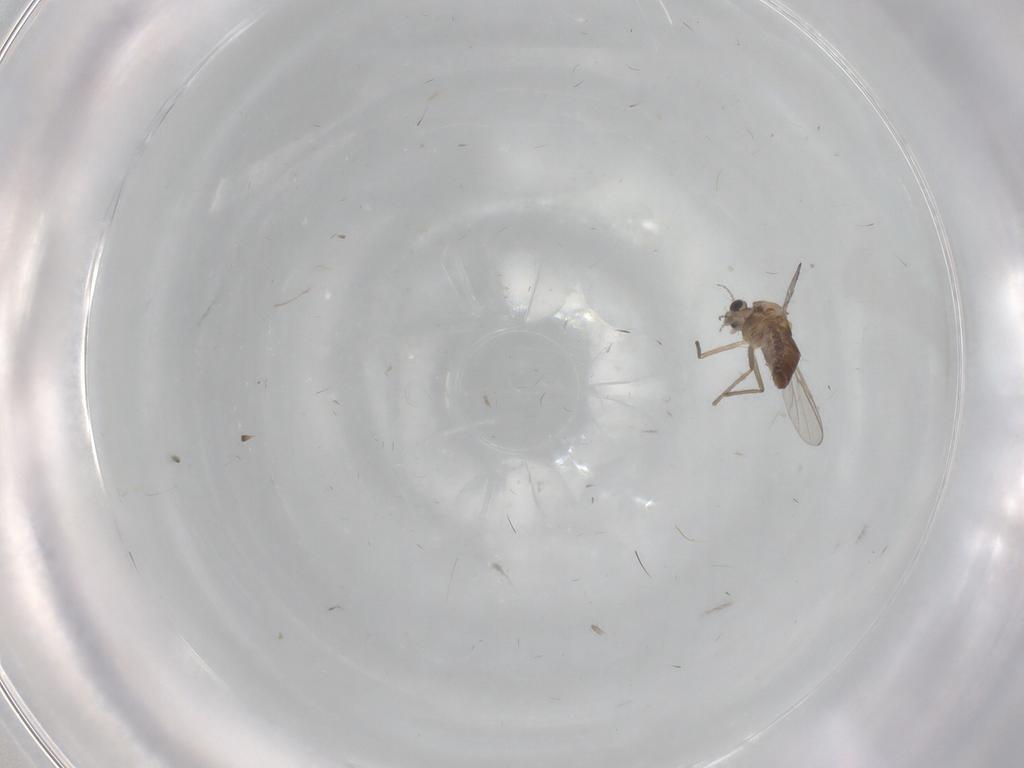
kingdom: Animalia
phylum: Arthropoda
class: Insecta
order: Diptera
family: Chironomidae
